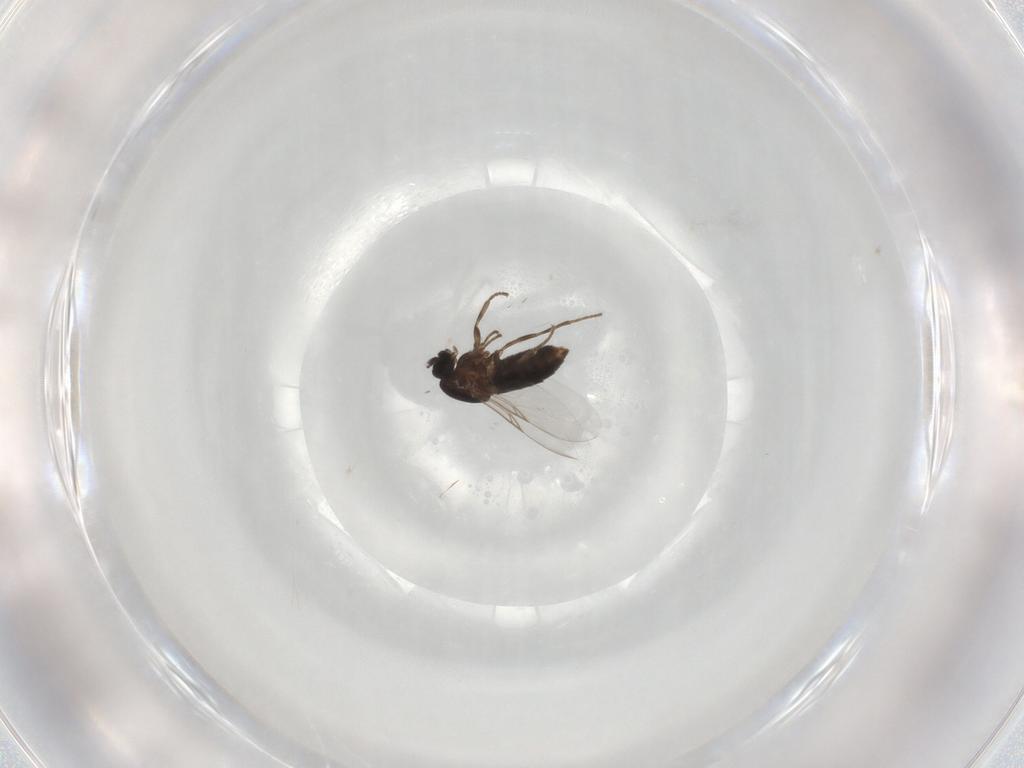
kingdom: Animalia
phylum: Arthropoda
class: Insecta
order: Diptera
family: Scatopsidae
